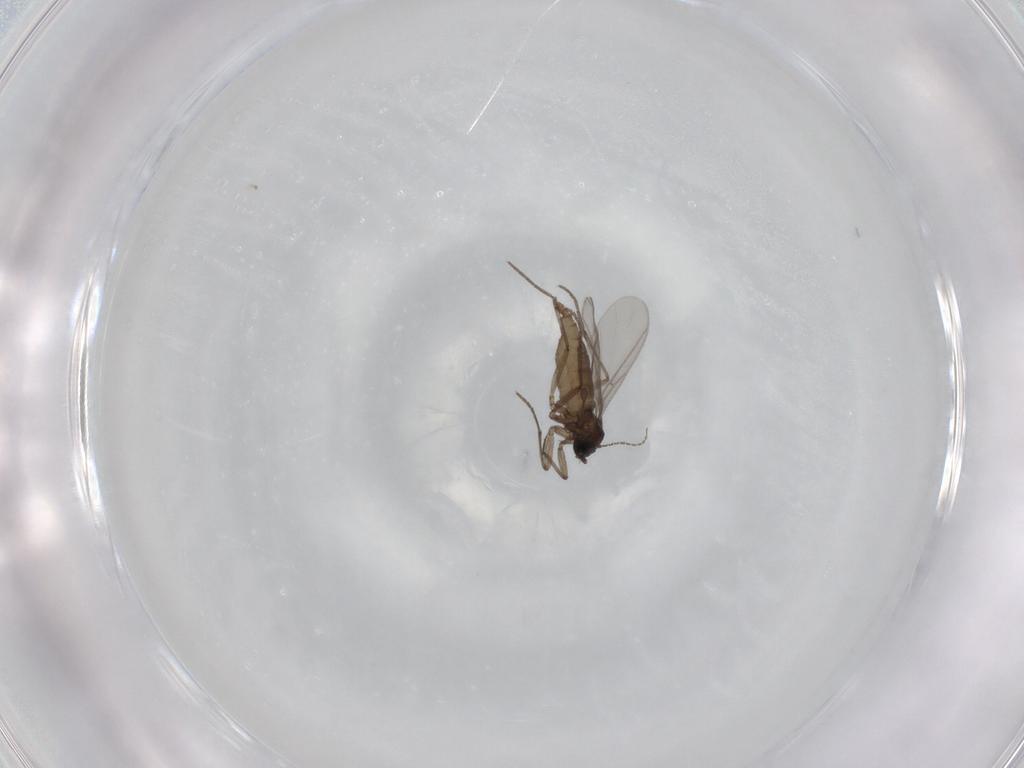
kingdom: Animalia
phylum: Arthropoda
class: Insecta
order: Diptera
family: Sciaridae
